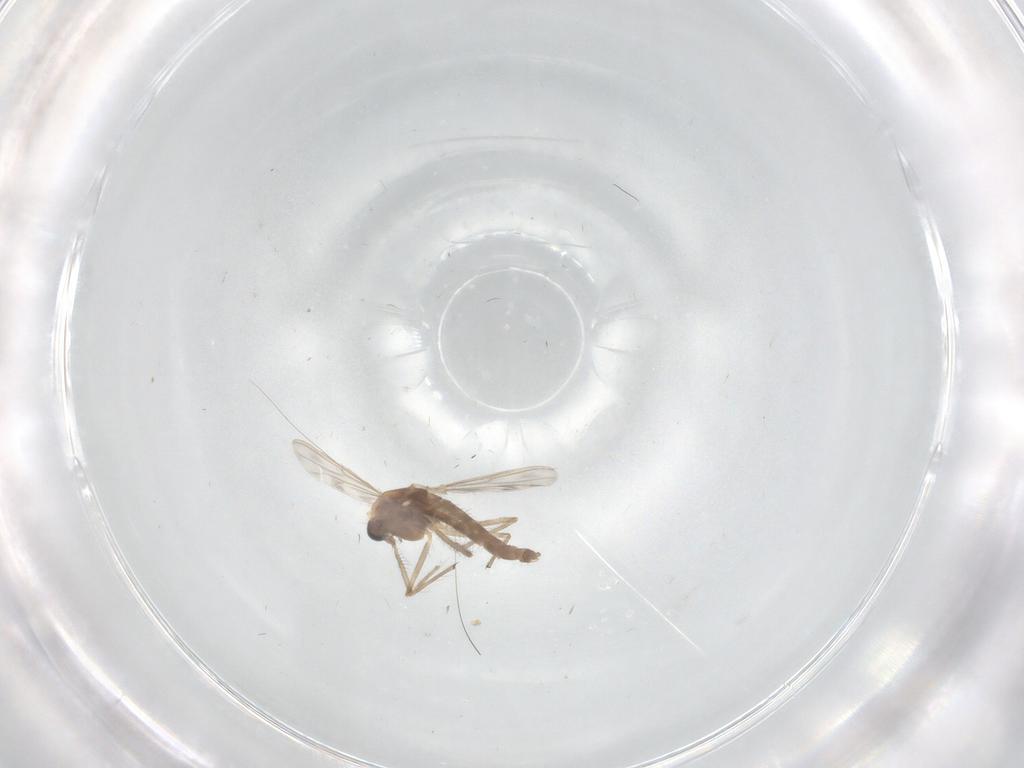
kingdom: Animalia
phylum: Arthropoda
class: Insecta
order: Diptera
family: Chironomidae
